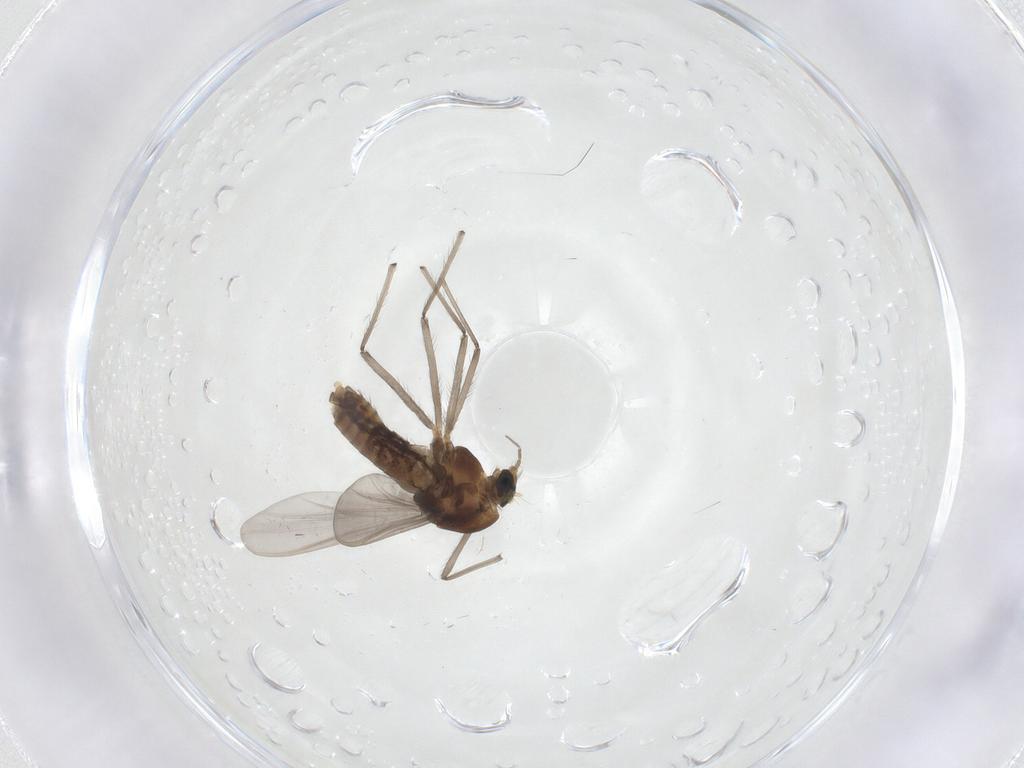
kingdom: Animalia
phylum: Arthropoda
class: Insecta
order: Diptera
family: Chironomidae
